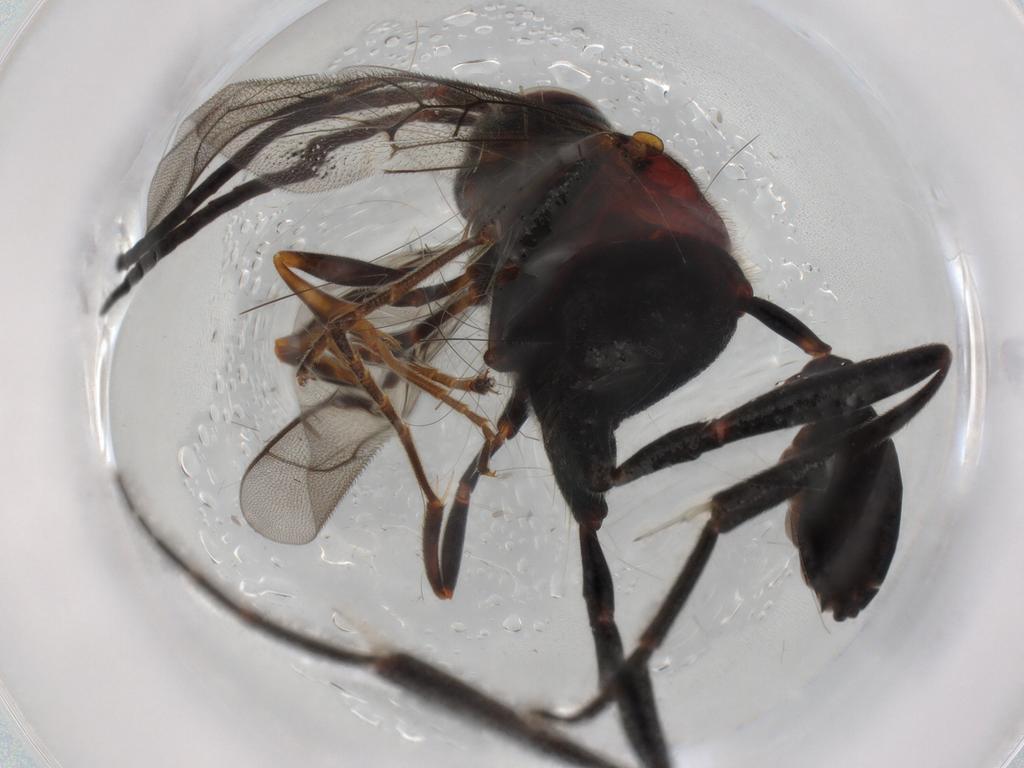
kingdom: Animalia
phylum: Arthropoda
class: Insecta
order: Hymenoptera
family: Evaniidae
